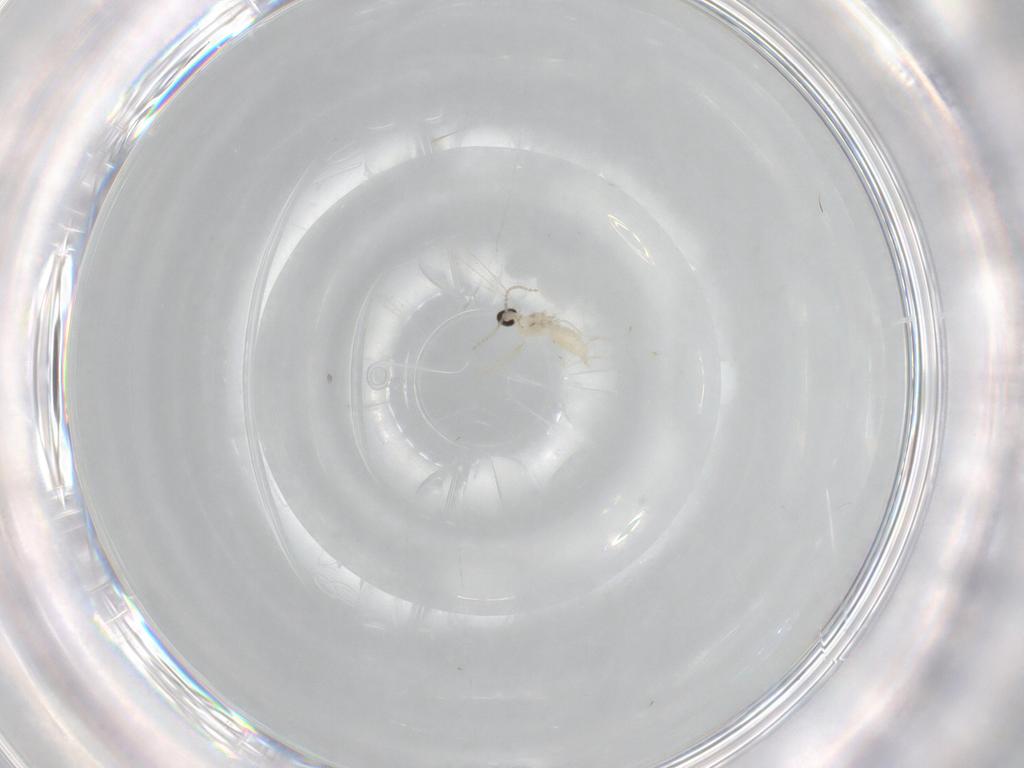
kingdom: Animalia
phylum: Arthropoda
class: Insecta
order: Diptera
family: Cecidomyiidae
